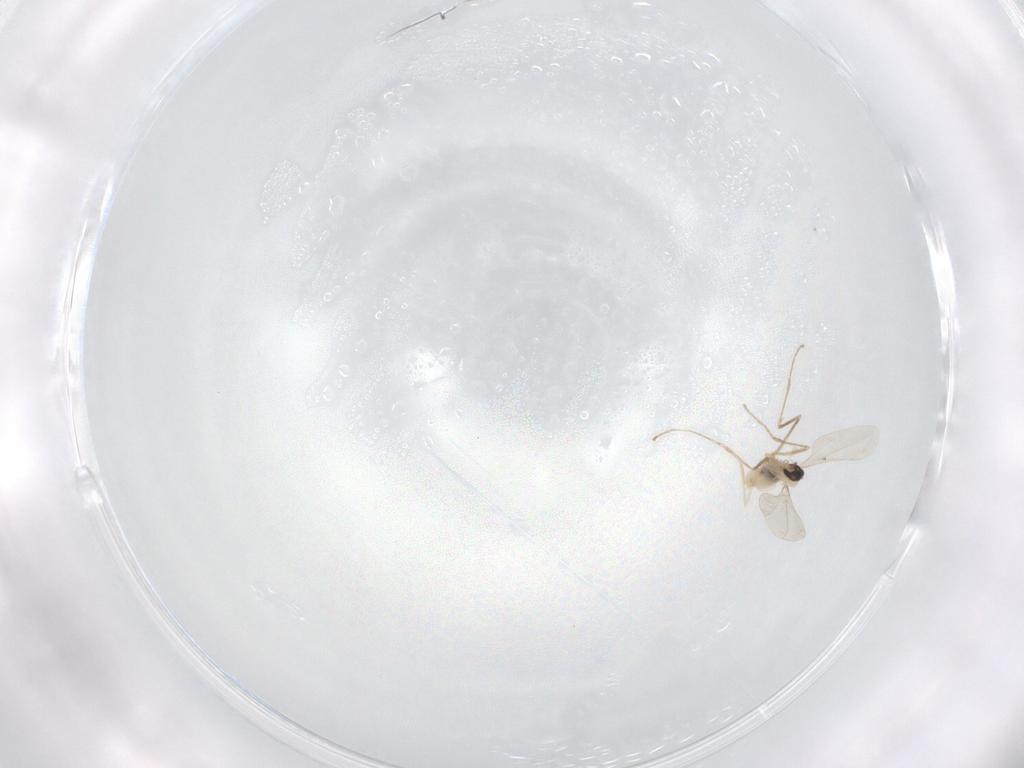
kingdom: Animalia
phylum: Arthropoda
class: Insecta
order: Diptera
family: Cecidomyiidae
